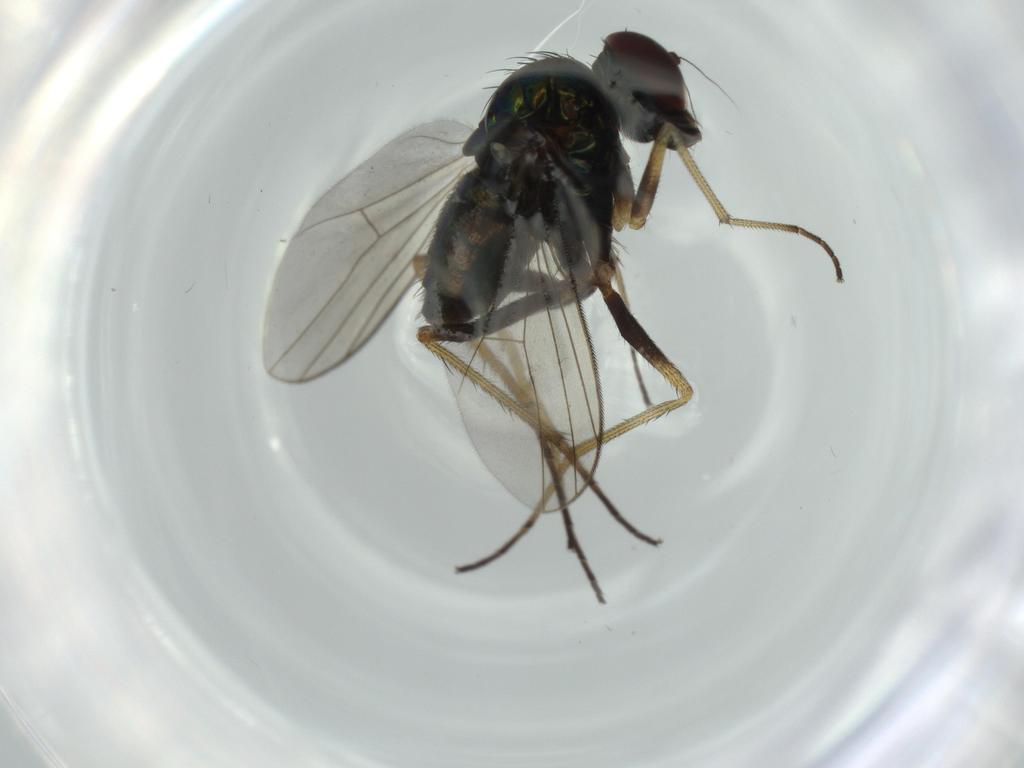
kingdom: Animalia
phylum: Arthropoda
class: Insecta
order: Diptera
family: Dolichopodidae
